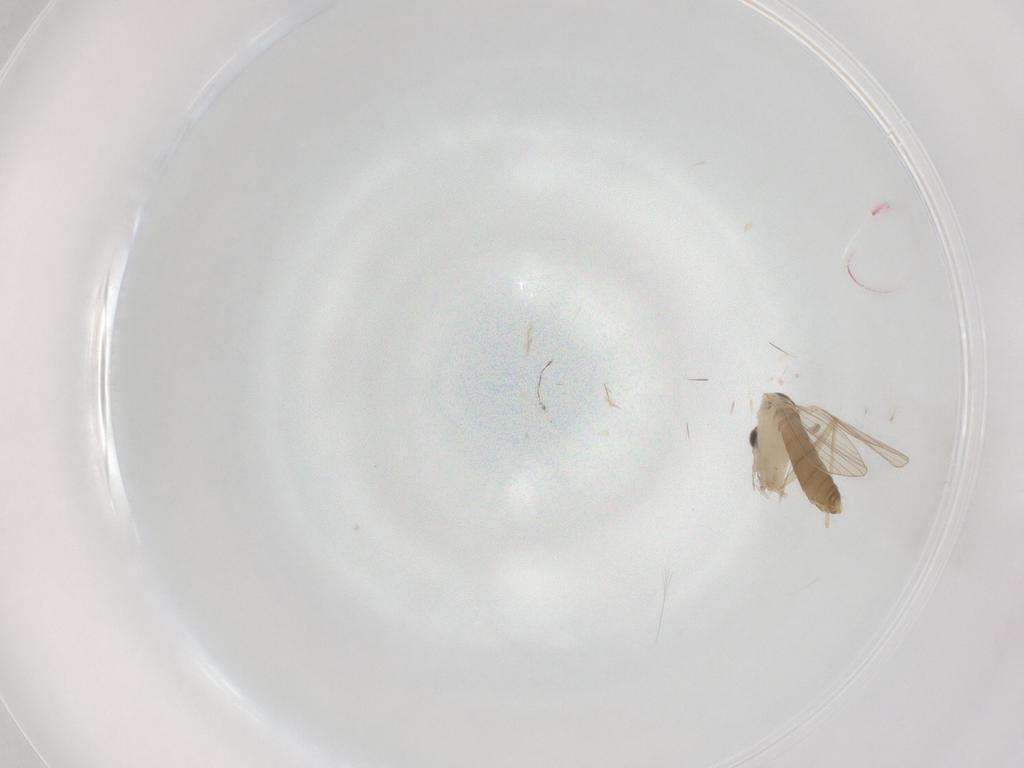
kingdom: Animalia
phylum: Arthropoda
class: Insecta
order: Diptera
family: Psychodidae
